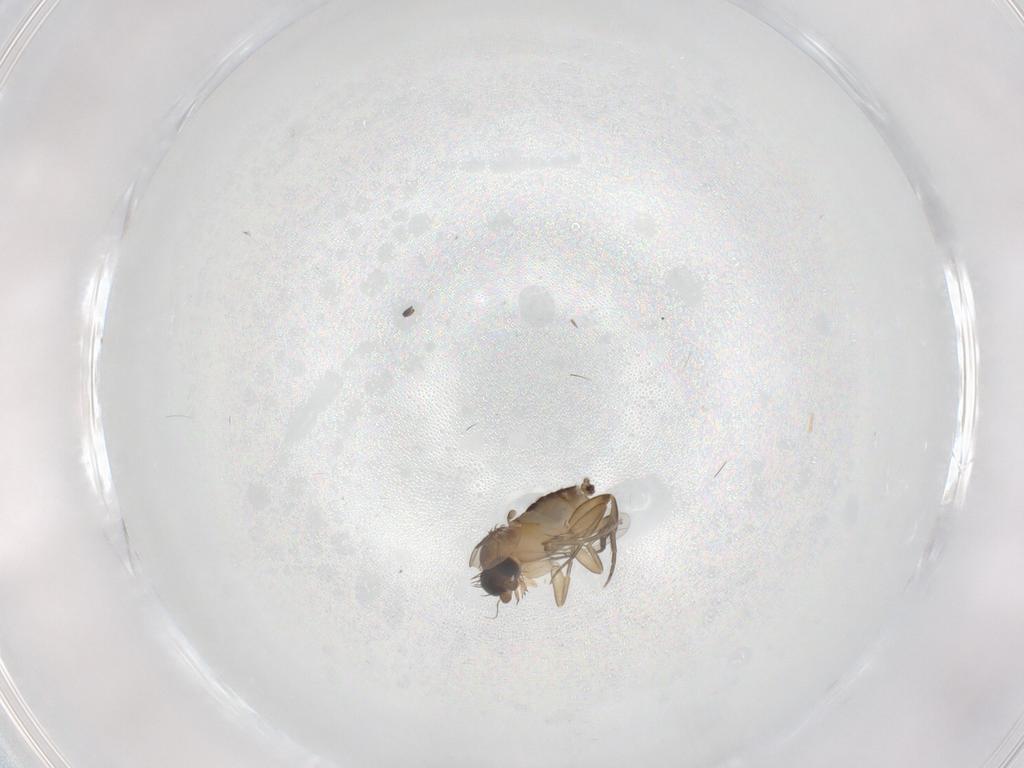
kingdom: Animalia
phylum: Arthropoda
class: Insecta
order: Diptera
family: Phoridae
